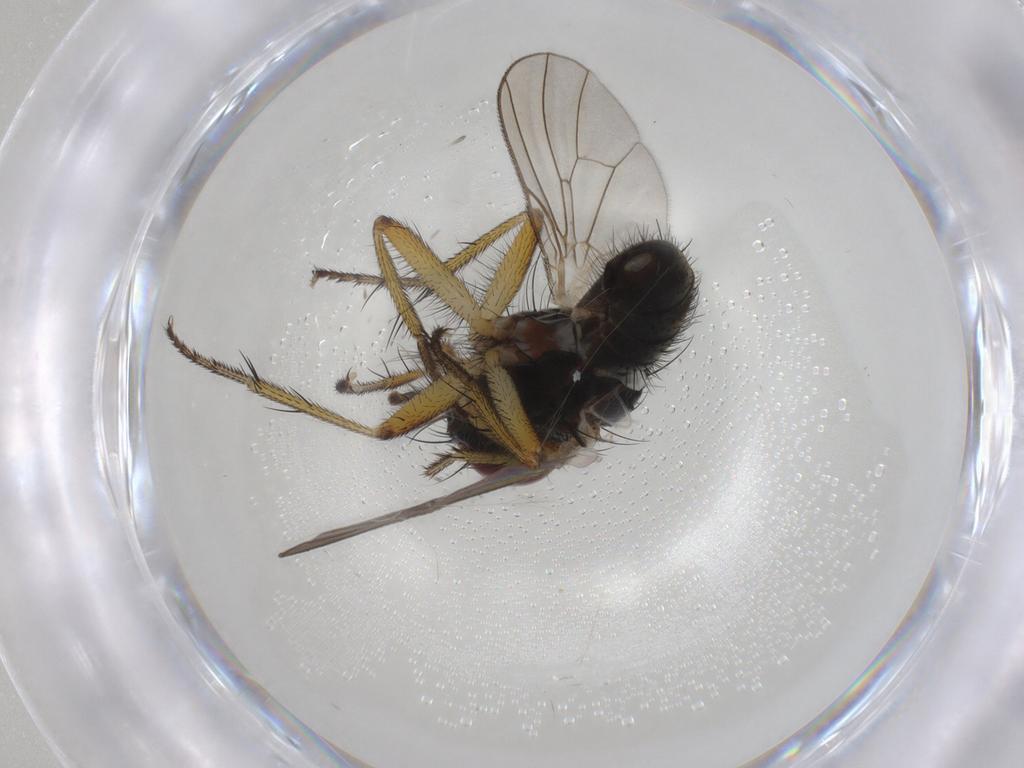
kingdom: Animalia
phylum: Arthropoda
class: Insecta
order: Diptera
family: Muscidae
